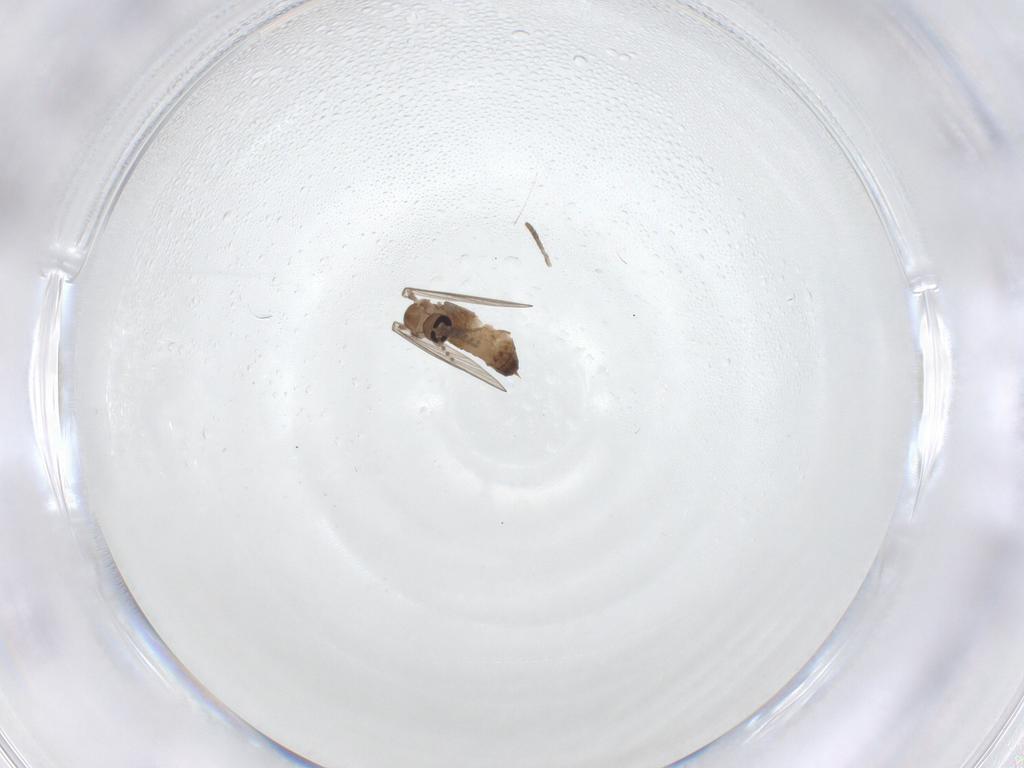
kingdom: Animalia
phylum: Arthropoda
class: Insecta
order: Diptera
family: Psychodidae
